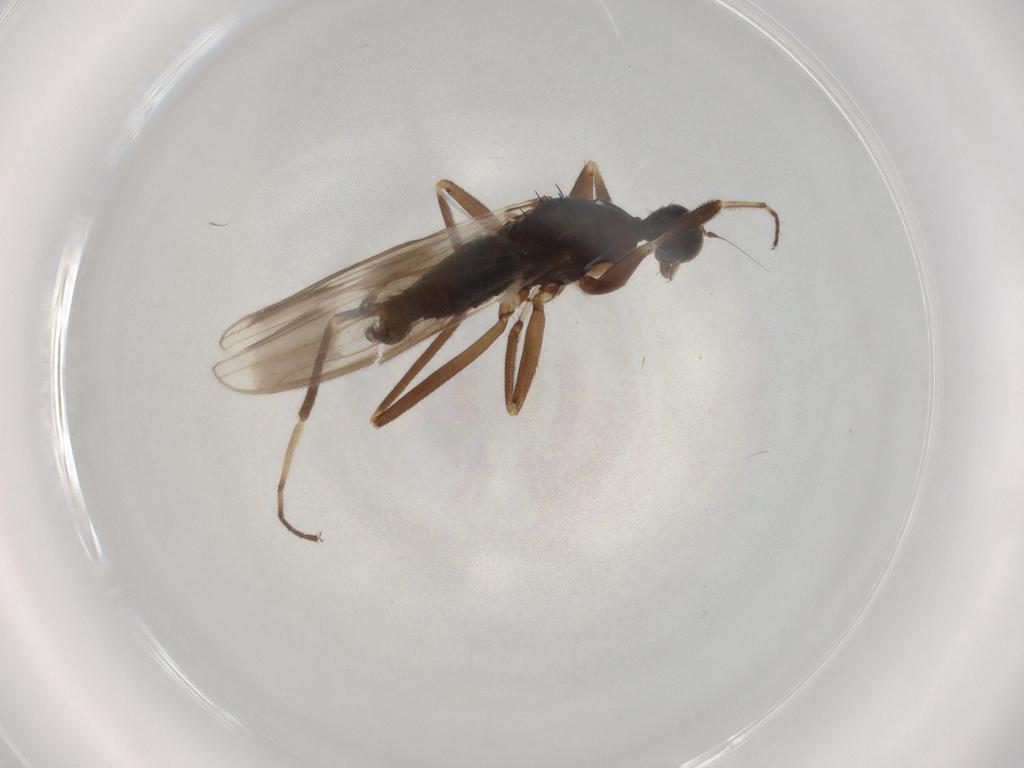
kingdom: Animalia
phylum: Arthropoda
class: Insecta
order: Diptera
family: Hybotidae
